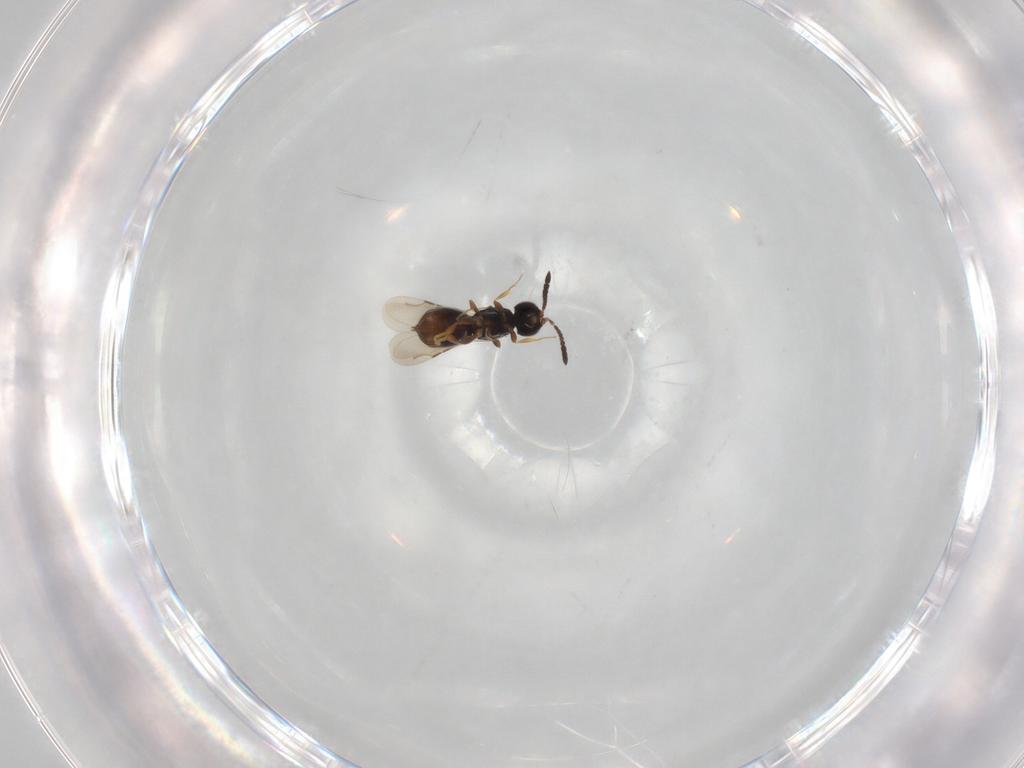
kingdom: Animalia
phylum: Arthropoda
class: Insecta
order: Hymenoptera
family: Ceraphronidae
